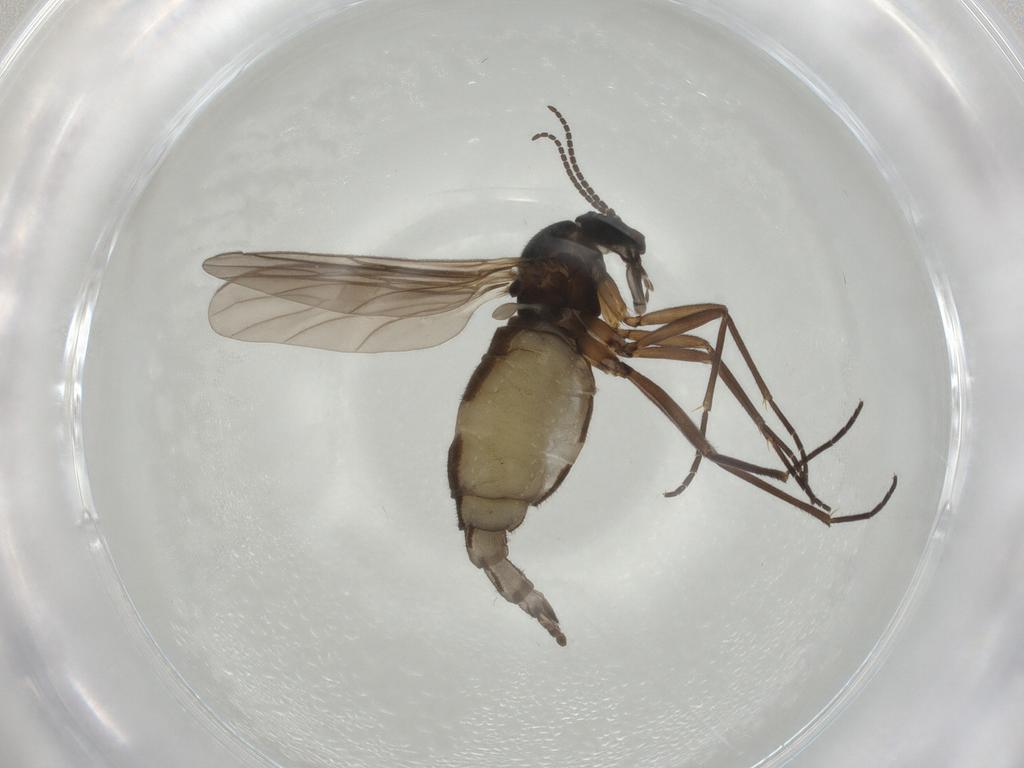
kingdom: Animalia
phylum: Arthropoda
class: Insecta
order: Diptera
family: Sciaridae
